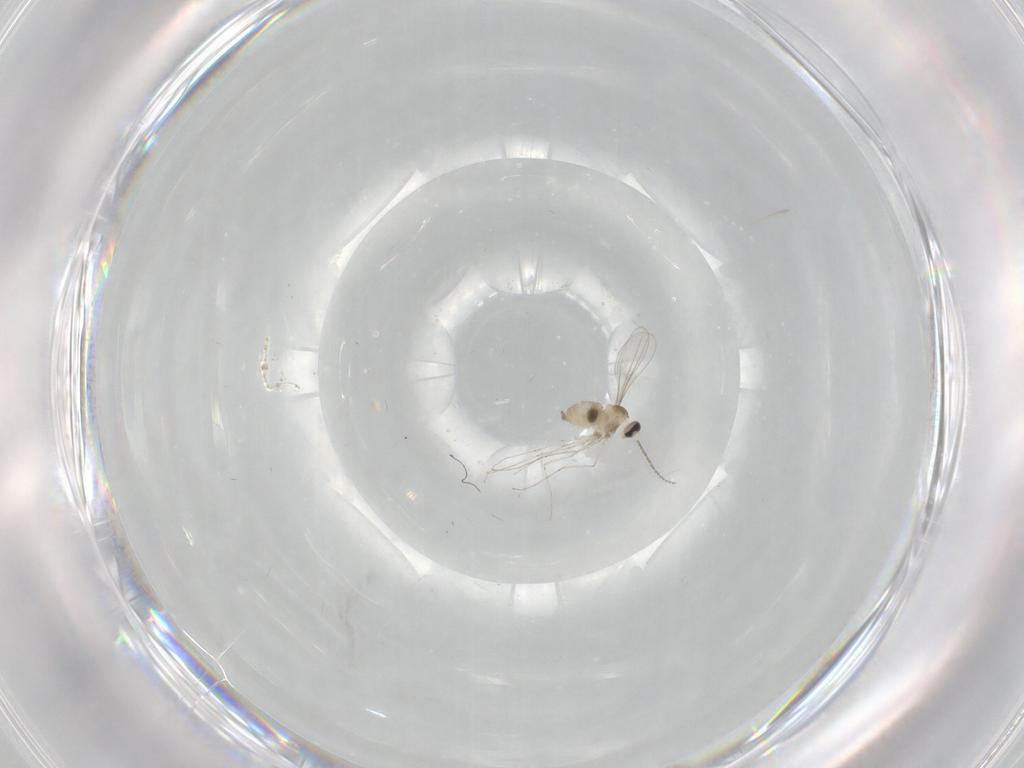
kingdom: Animalia
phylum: Arthropoda
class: Insecta
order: Diptera
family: Cecidomyiidae
